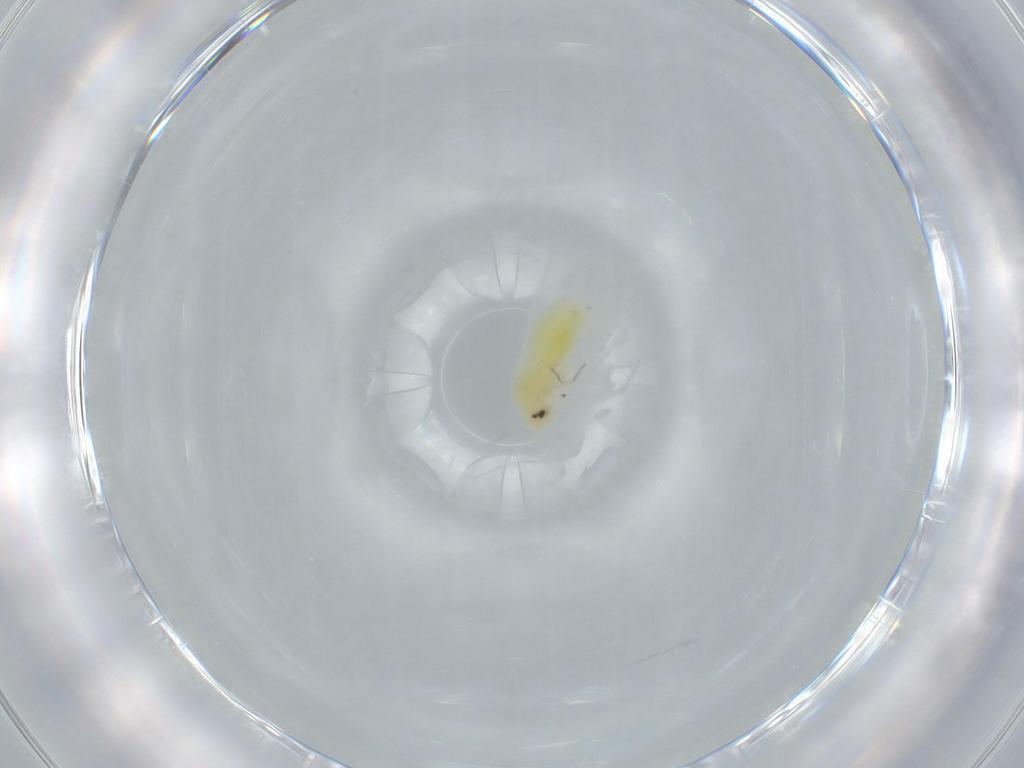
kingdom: Animalia
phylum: Arthropoda
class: Insecta
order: Hemiptera
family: Aleyrodidae
